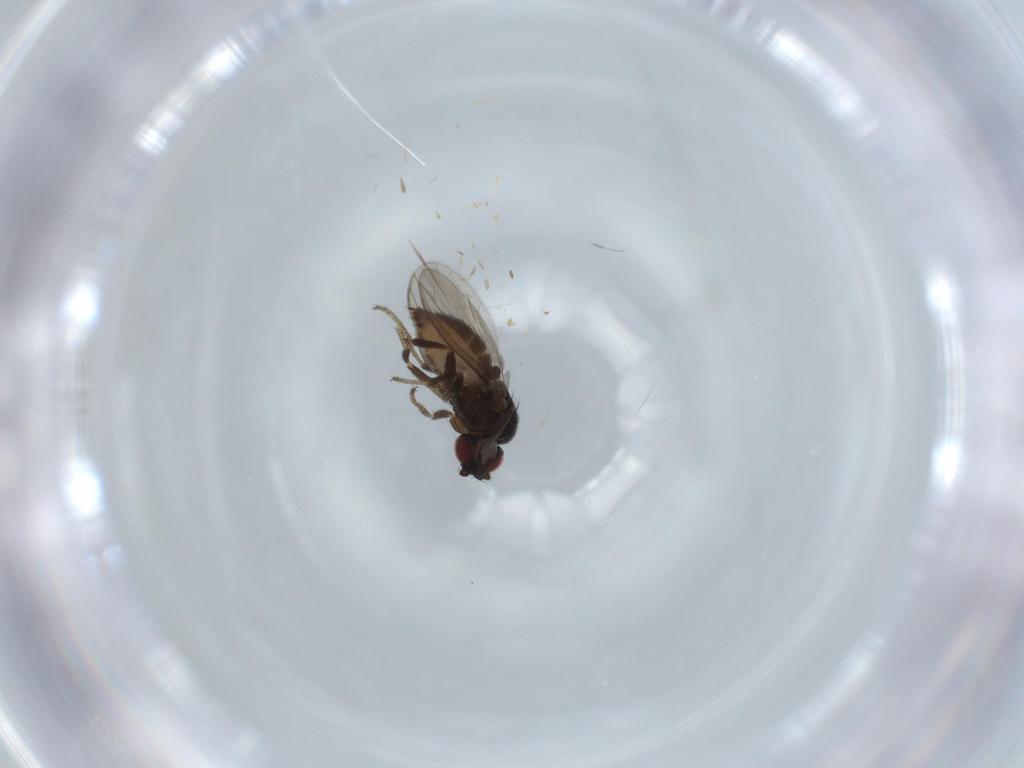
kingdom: Animalia
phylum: Arthropoda
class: Insecta
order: Diptera
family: Milichiidae
